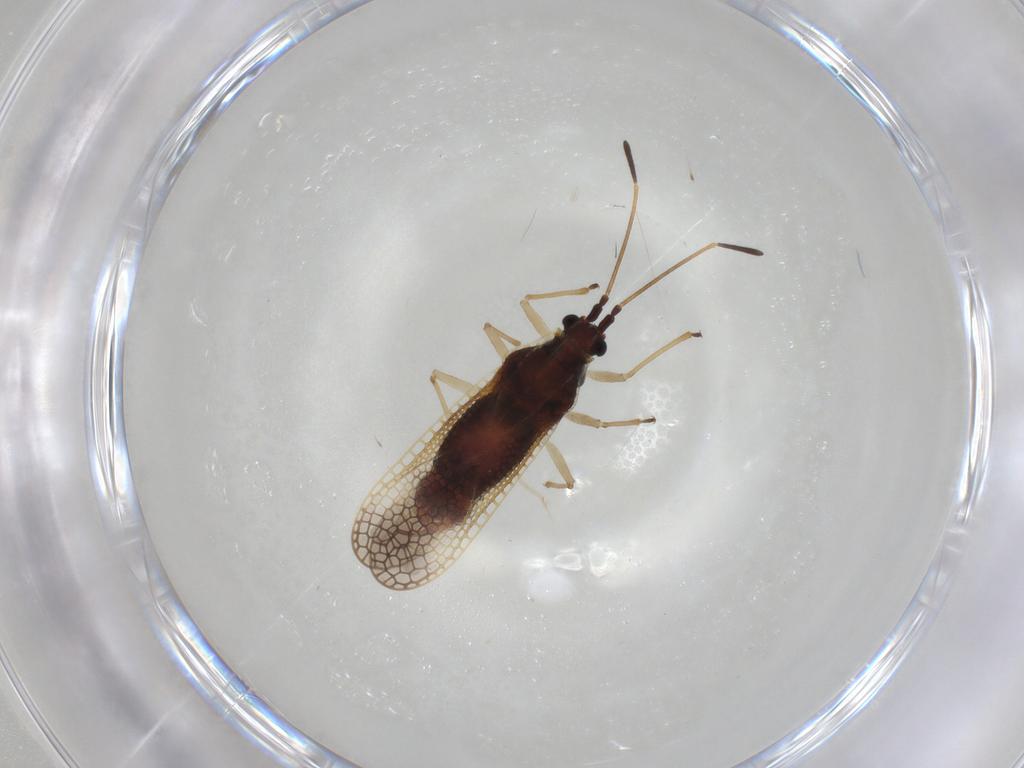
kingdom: Animalia
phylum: Arthropoda
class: Insecta
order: Hemiptera
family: Tingidae
